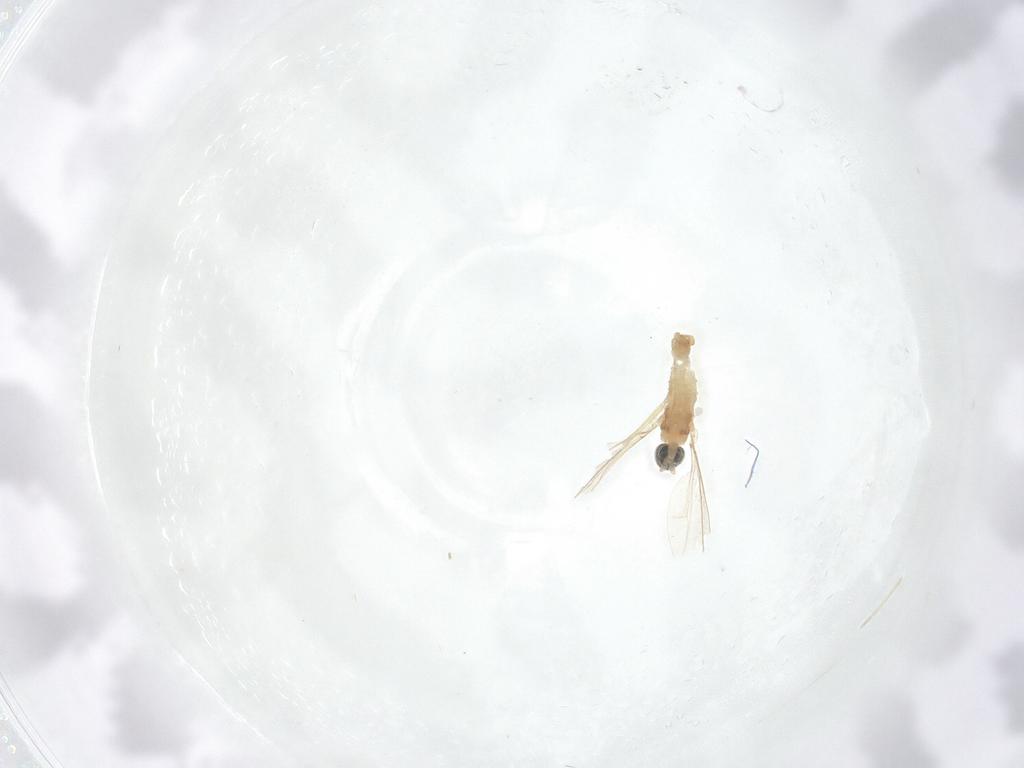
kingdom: Animalia
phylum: Arthropoda
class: Insecta
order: Diptera
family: Cecidomyiidae
